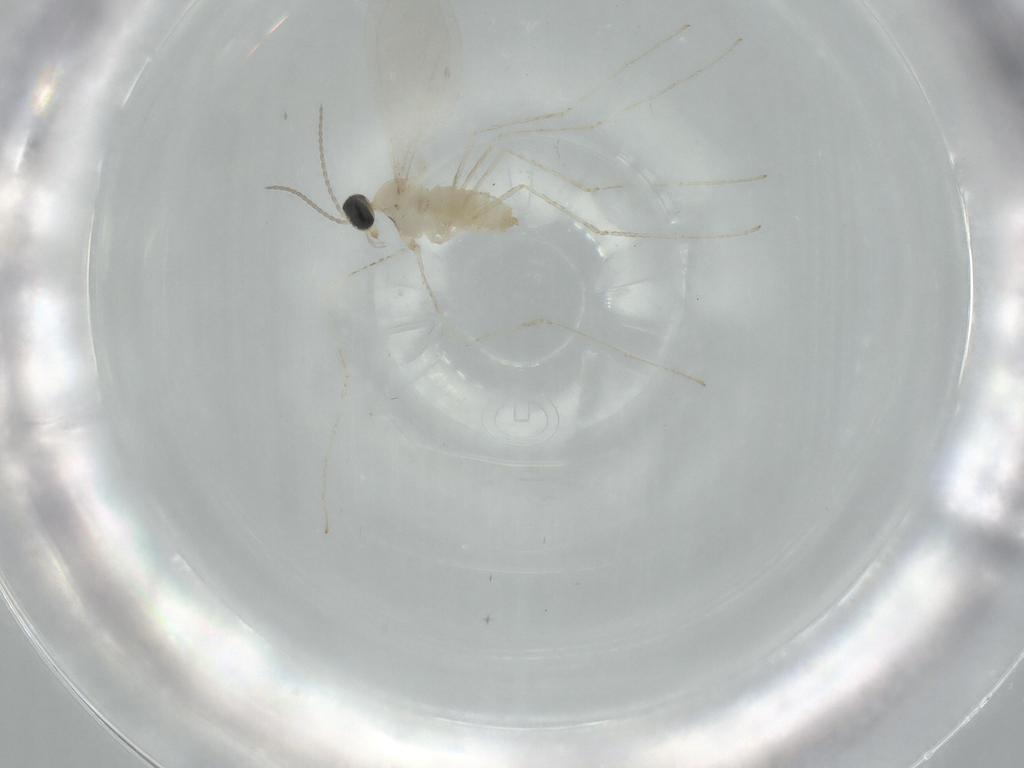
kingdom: Animalia
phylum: Arthropoda
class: Insecta
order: Diptera
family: Cecidomyiidae
